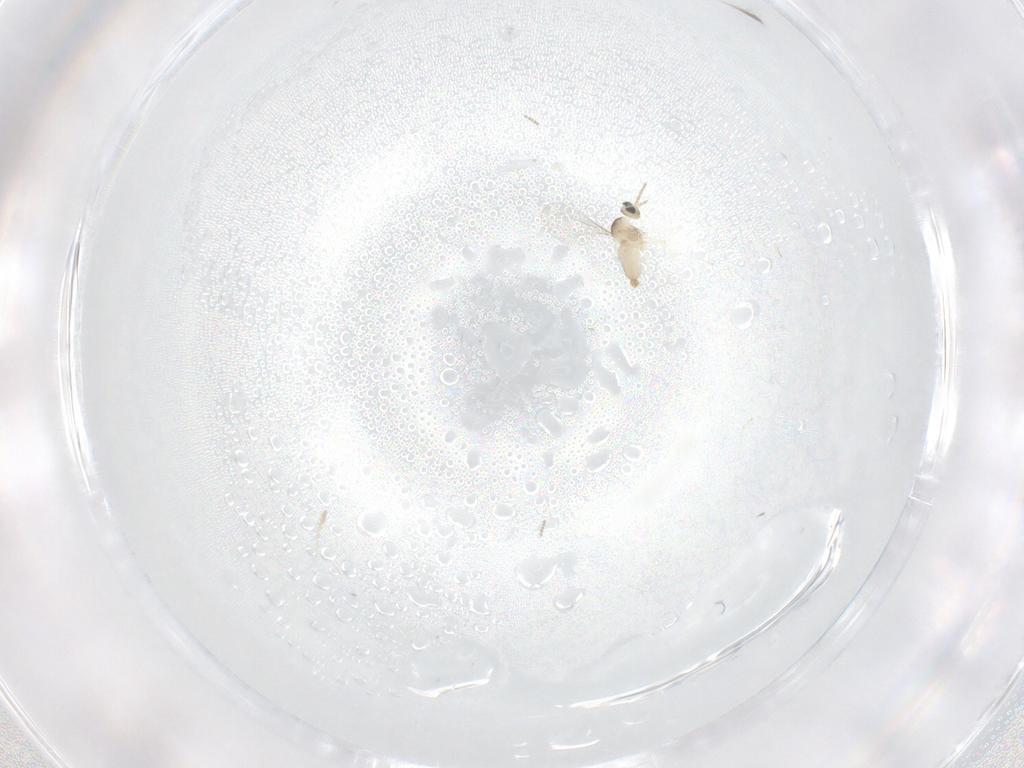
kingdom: Animalia
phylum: Arthropoda
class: Insecta
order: Diptera
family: Cecidomyiidae
